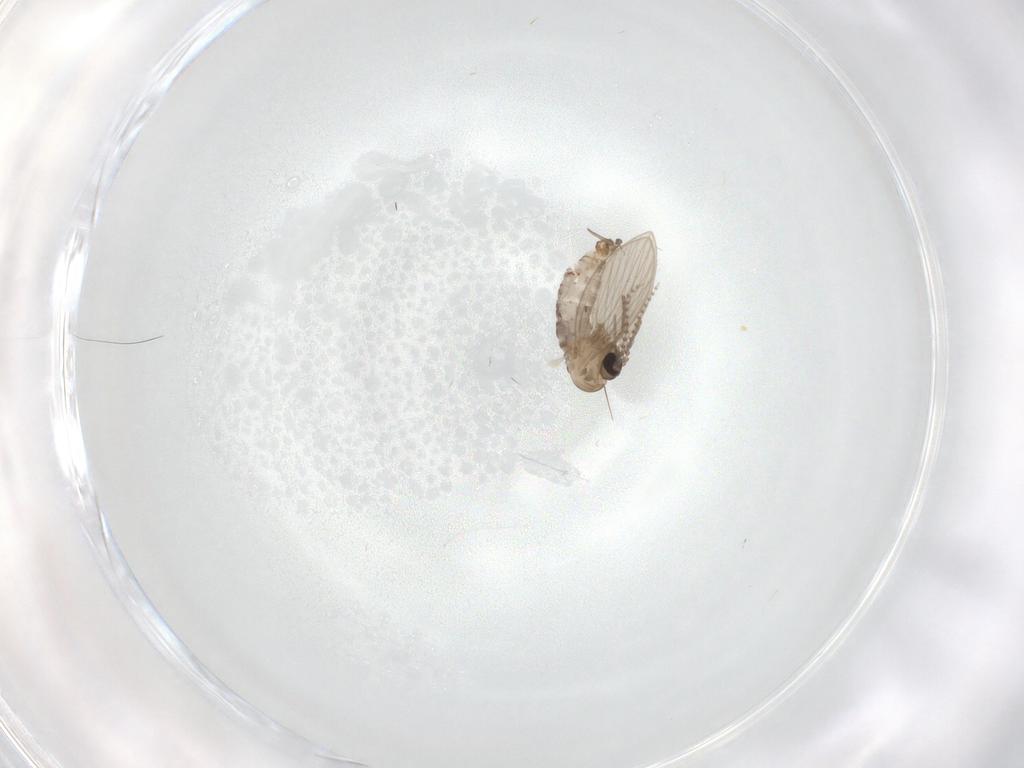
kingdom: Animalia
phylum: Arthropoda
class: Insecta
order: Diptera
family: Psychodidae
